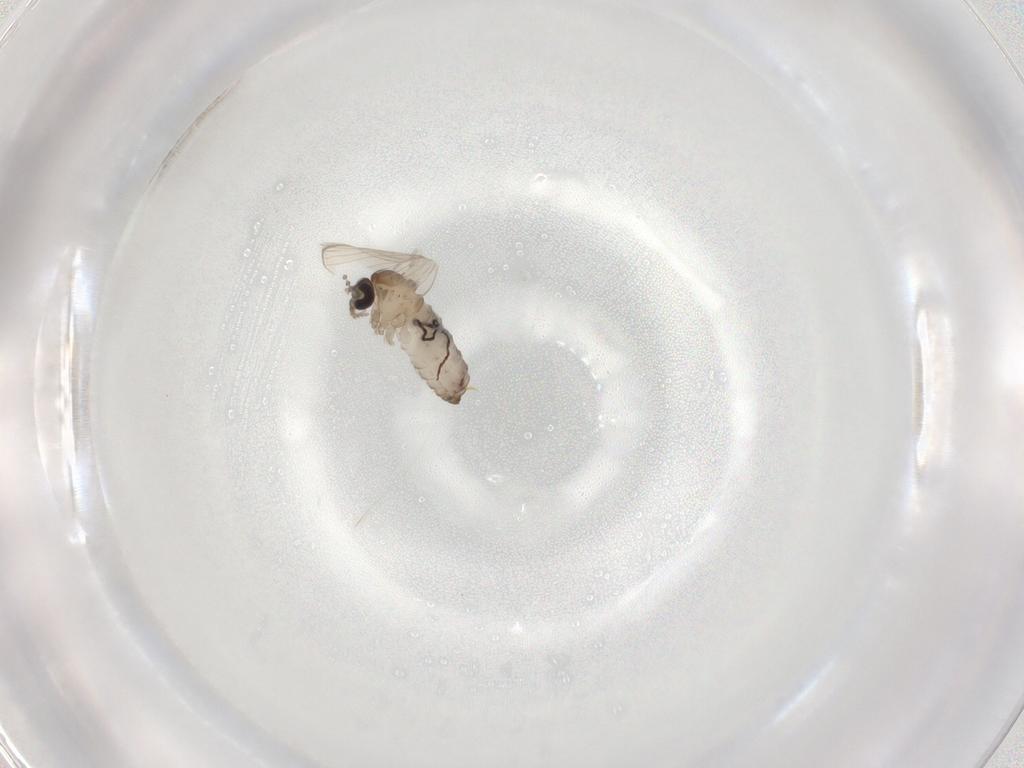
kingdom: Animalia
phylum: Arthropoda
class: Insecta
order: Diptera
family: Psychodidae
